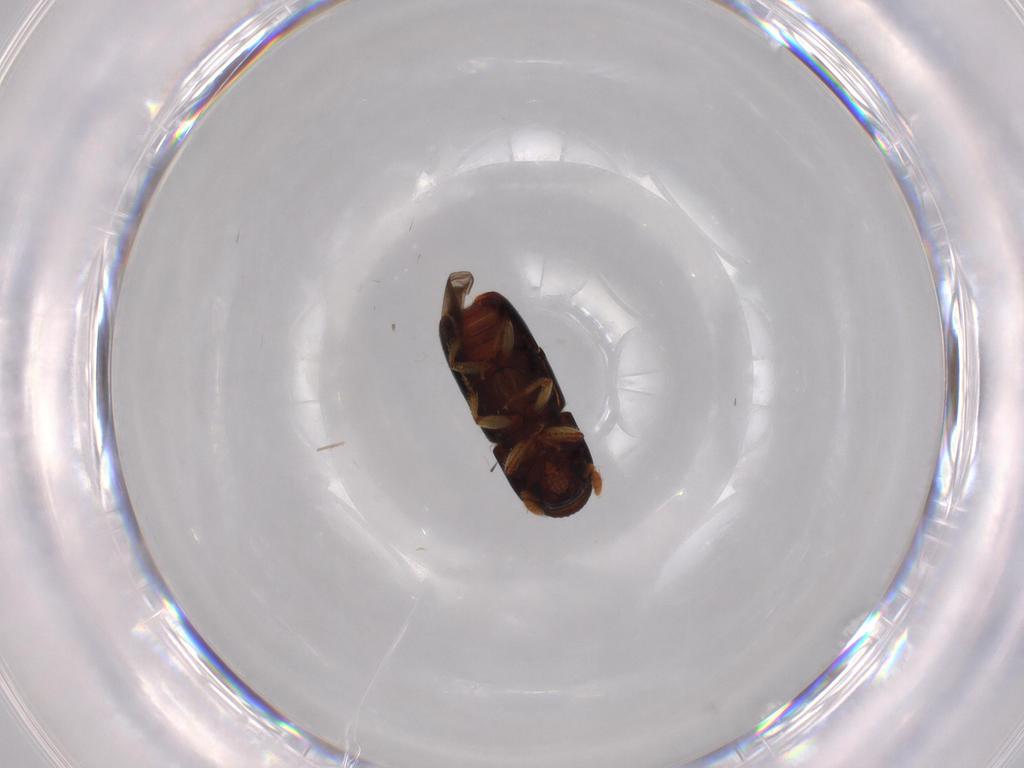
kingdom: Animalia
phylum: Arthropoda
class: Insecta
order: Coleoptera
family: Curculionidae
